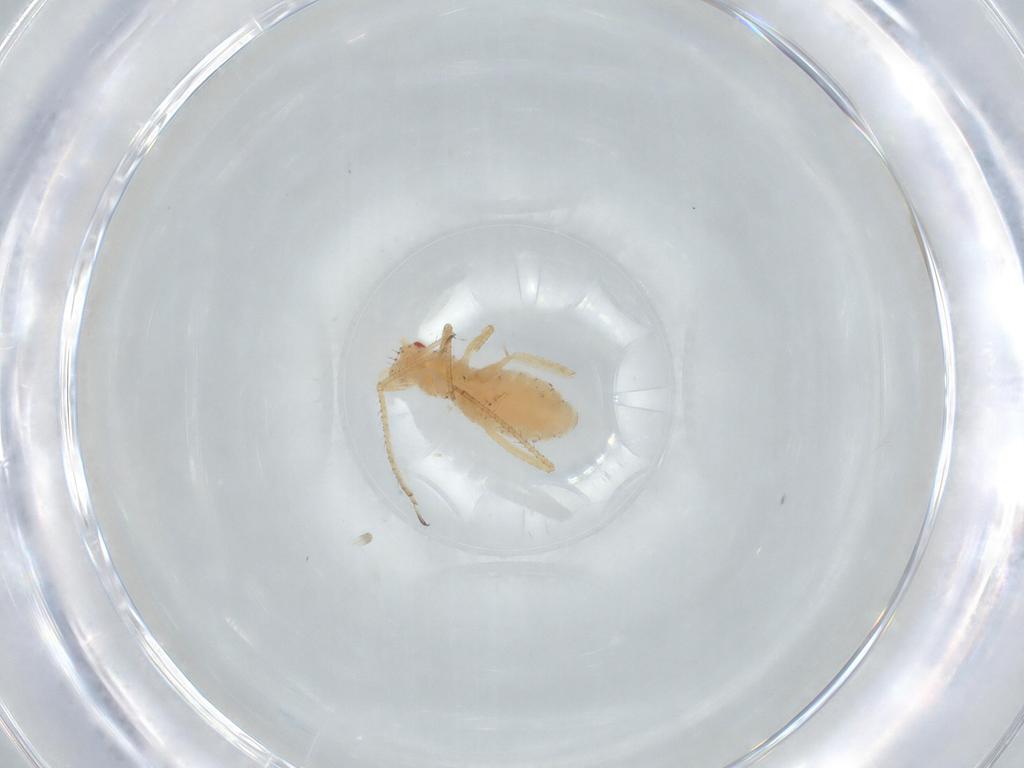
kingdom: Animalia
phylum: Arthropoda
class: Insecta
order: Hemiptera
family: Aphididae
